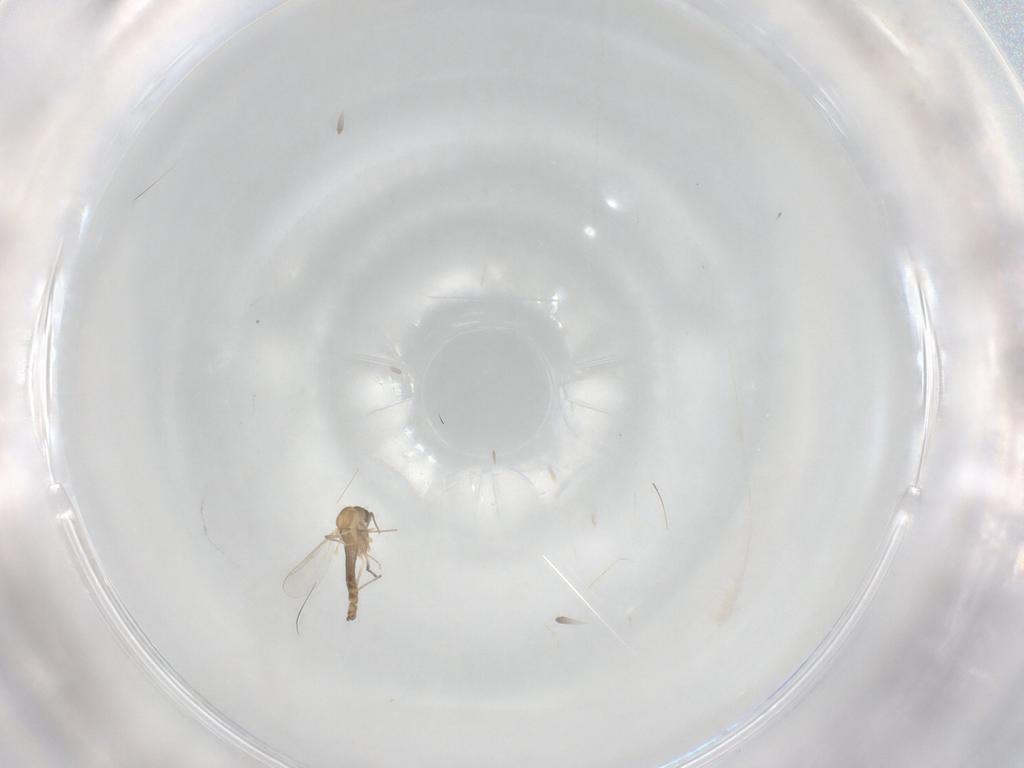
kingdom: Animalia
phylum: Arthropoda
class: Insecta
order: Diptera
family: Chironomidae
